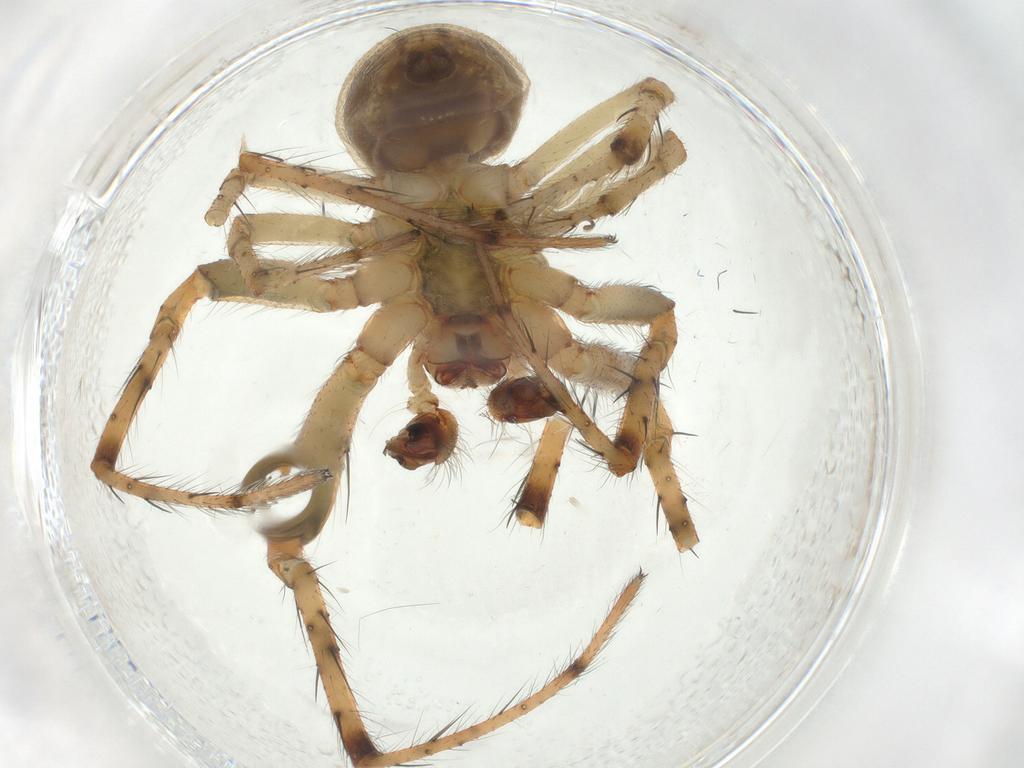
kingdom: Animalia
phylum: Arthropoda
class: Arachnida
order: Araneae
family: Araneidae
